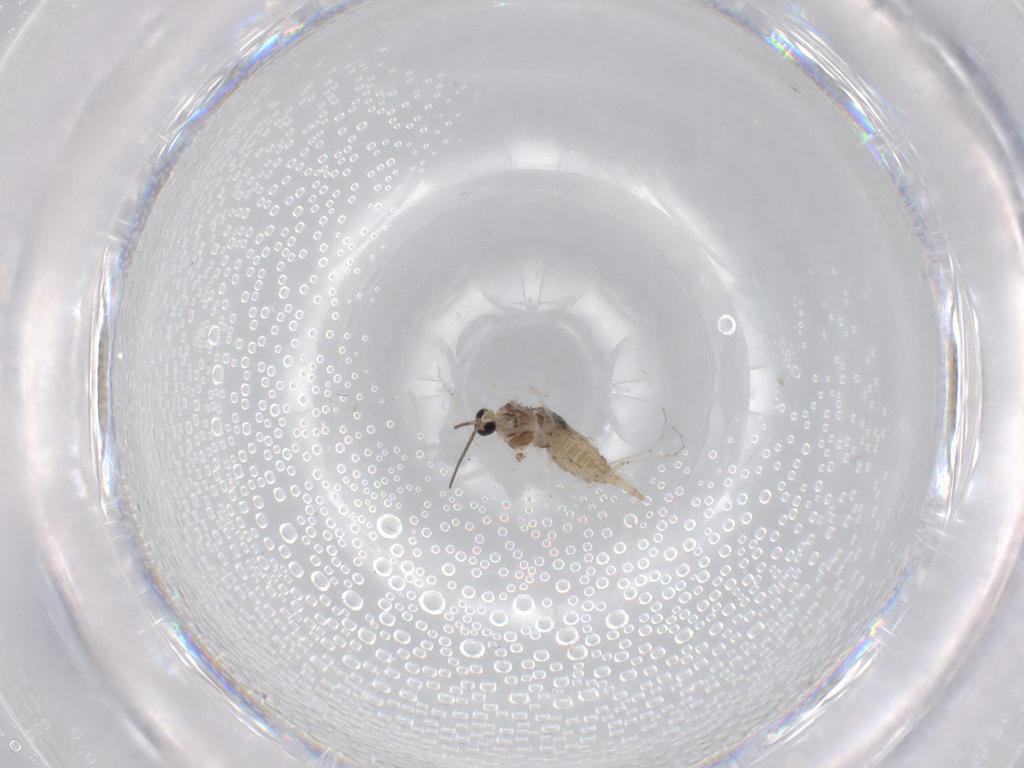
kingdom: Animalia
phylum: Arthropoda
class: Insecta
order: Diptera
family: Cecidomyiidae
